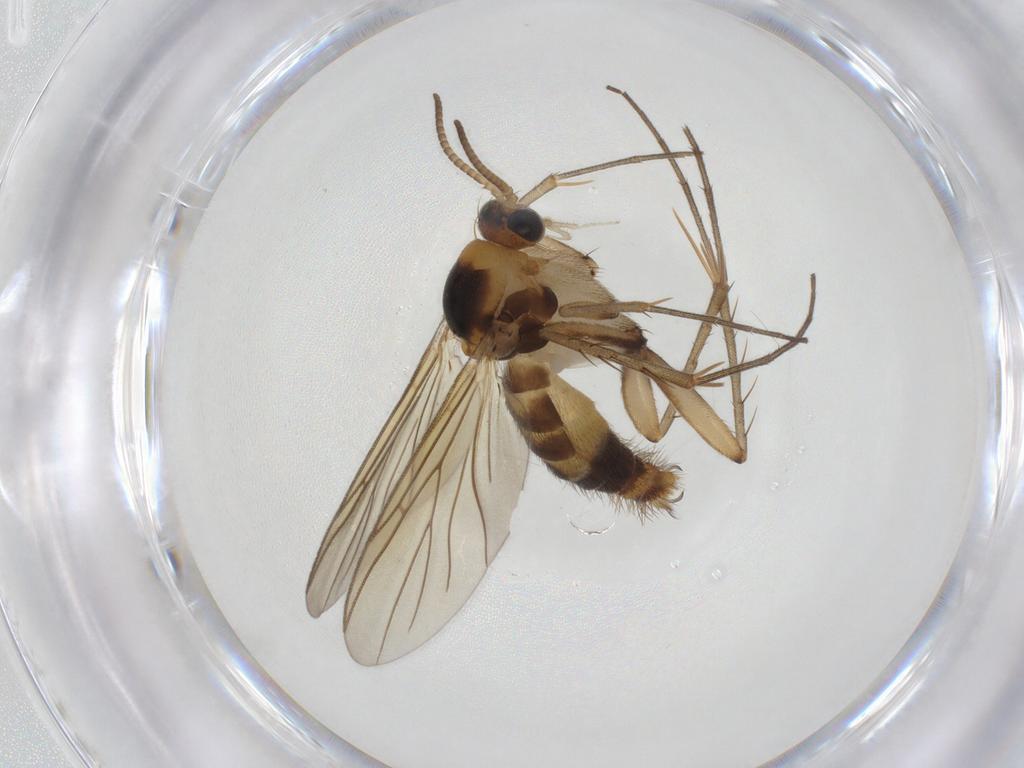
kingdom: Animalia
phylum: Arthropoda
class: Insecta
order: Diptera
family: Mycetophilidae
